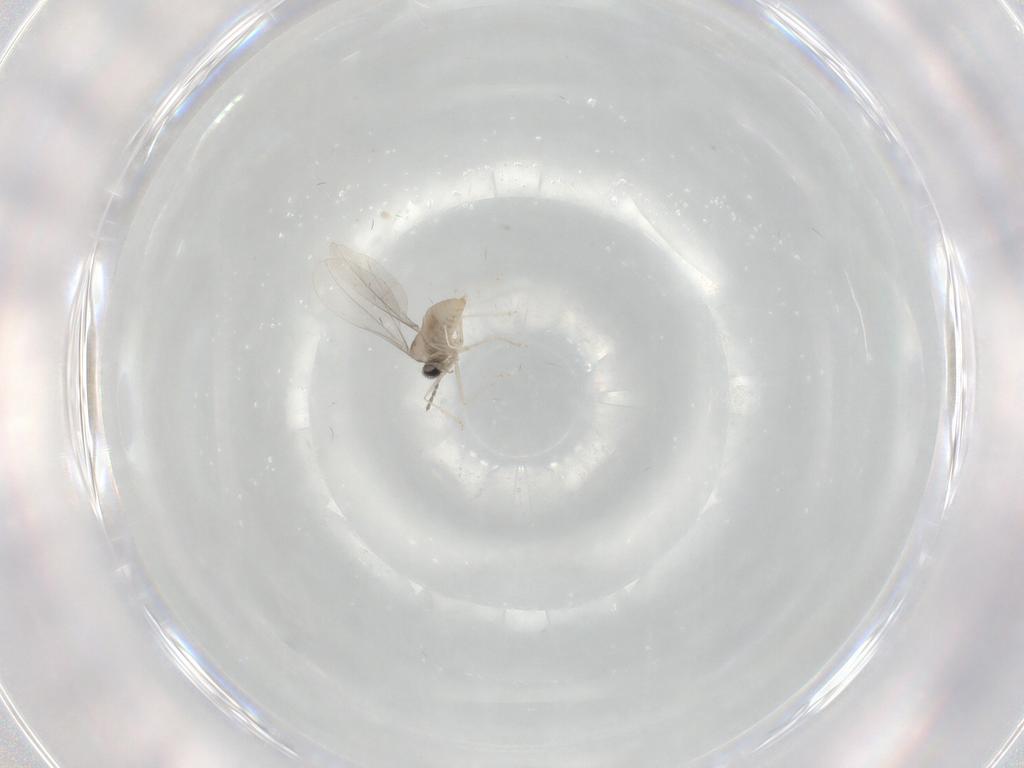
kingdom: Animalia
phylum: Arthropoda
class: Insecta
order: Diptera
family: Cecidomyiidae
